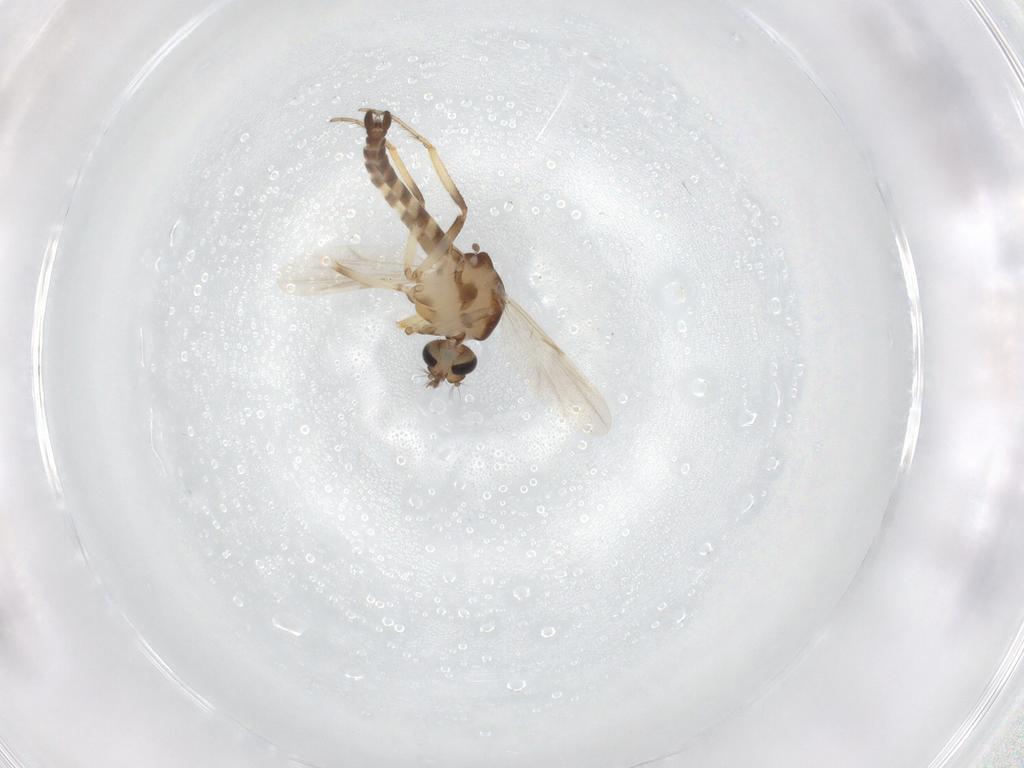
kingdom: Animalia
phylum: Arthropoda
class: Insecta
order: Diptera
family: Ceratopogonidae
